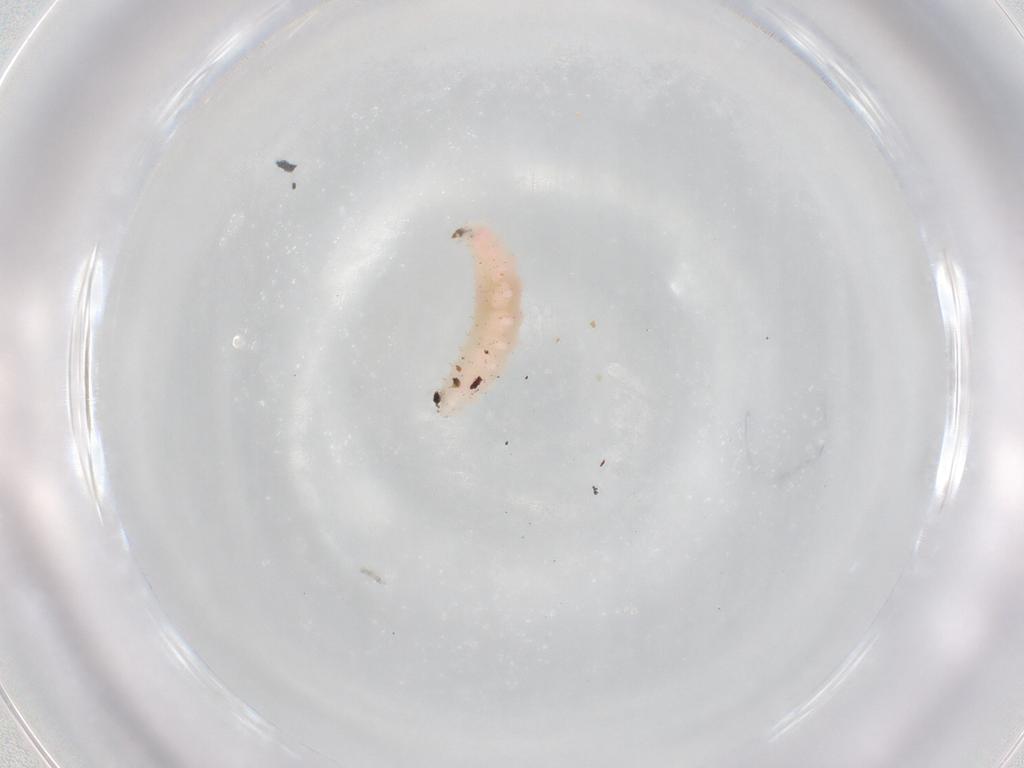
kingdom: Animalia
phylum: Arthropoda
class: Insecta
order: Diptera
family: Cecidomyiidae
